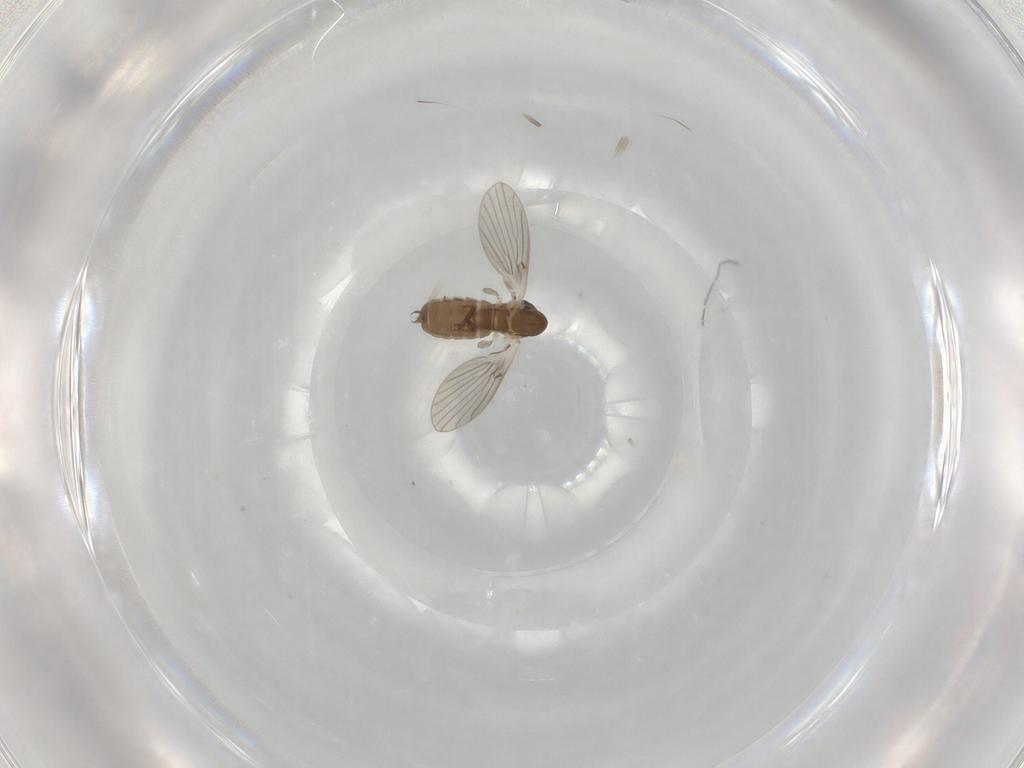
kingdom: Animalia
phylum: Arthropoda
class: Insecta
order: Diptera
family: Psychodidae
